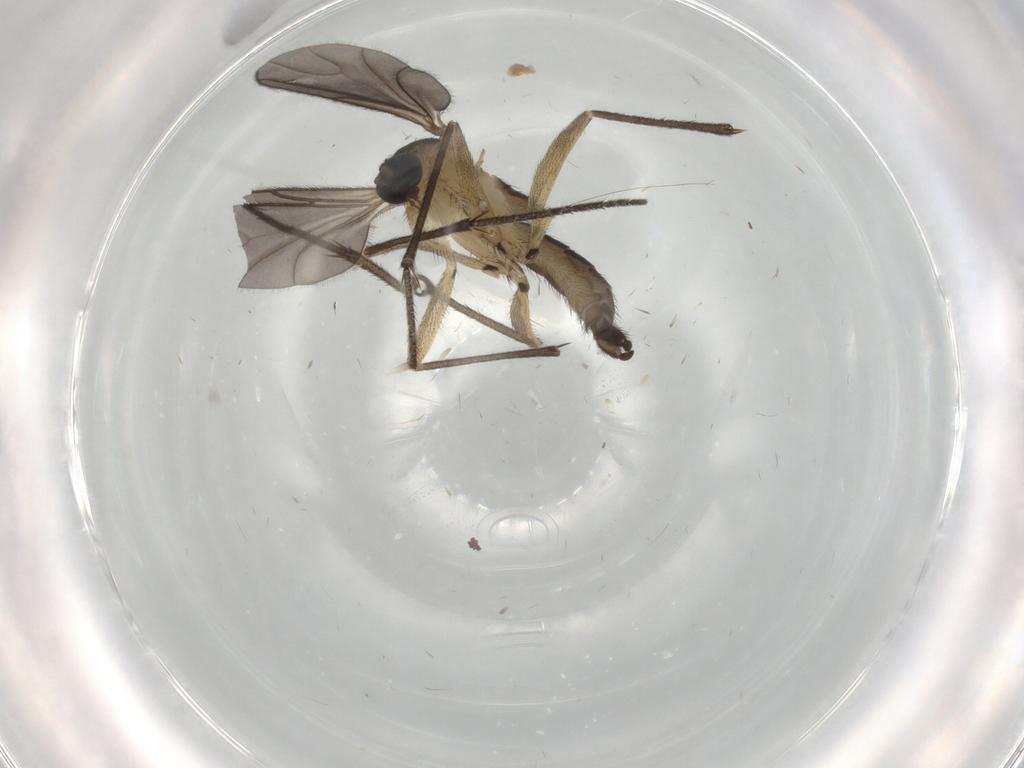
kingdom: Animalia
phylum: Arthropoda
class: Insecta
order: Diptera
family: Sciaridae
